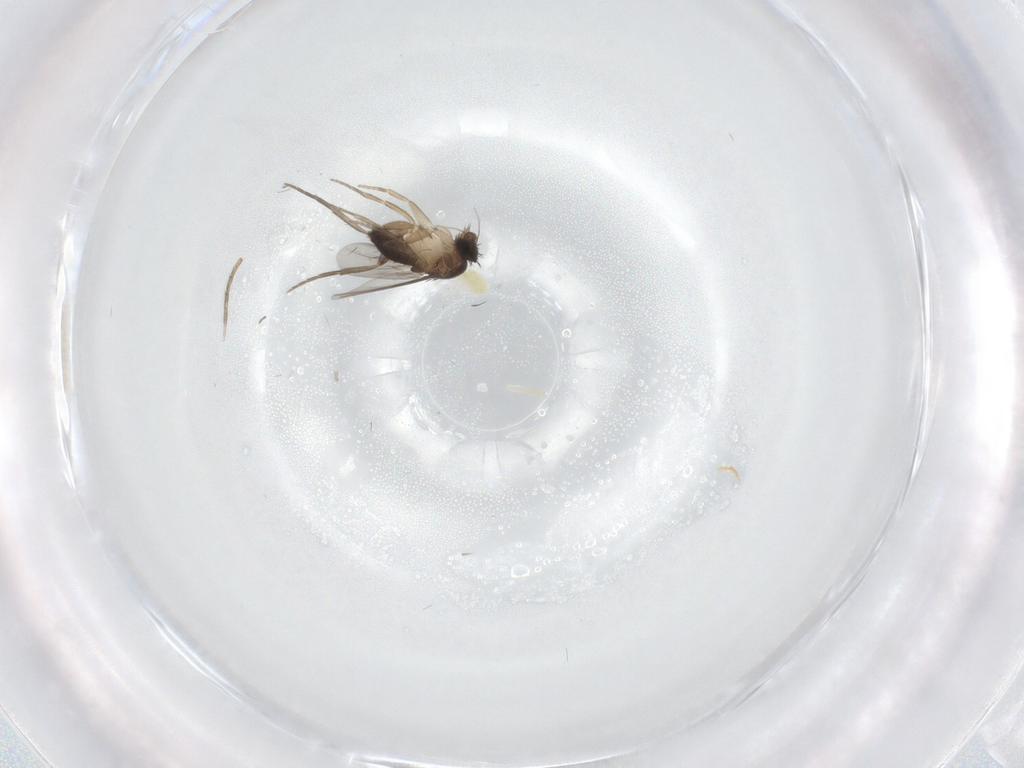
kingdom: Animalia
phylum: Arthropoda
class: Insecta
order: Diptera
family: Phoridae
